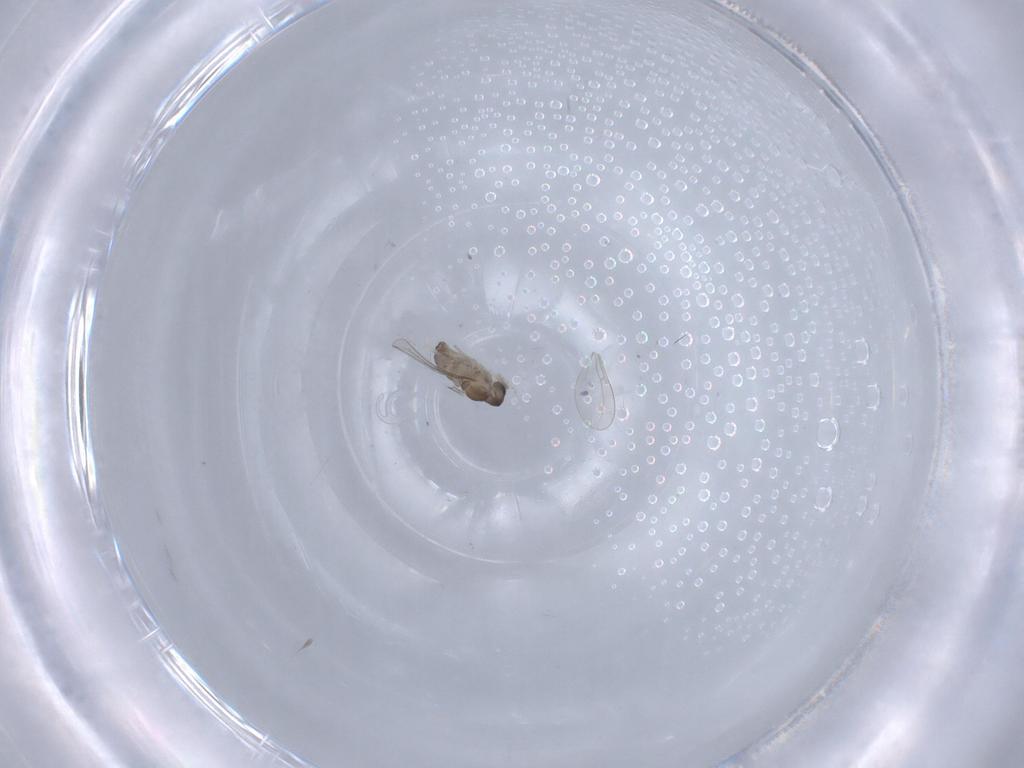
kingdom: Animalia
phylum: Arthropoda
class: Insecta
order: Diptera
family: Cecidomyiidae
